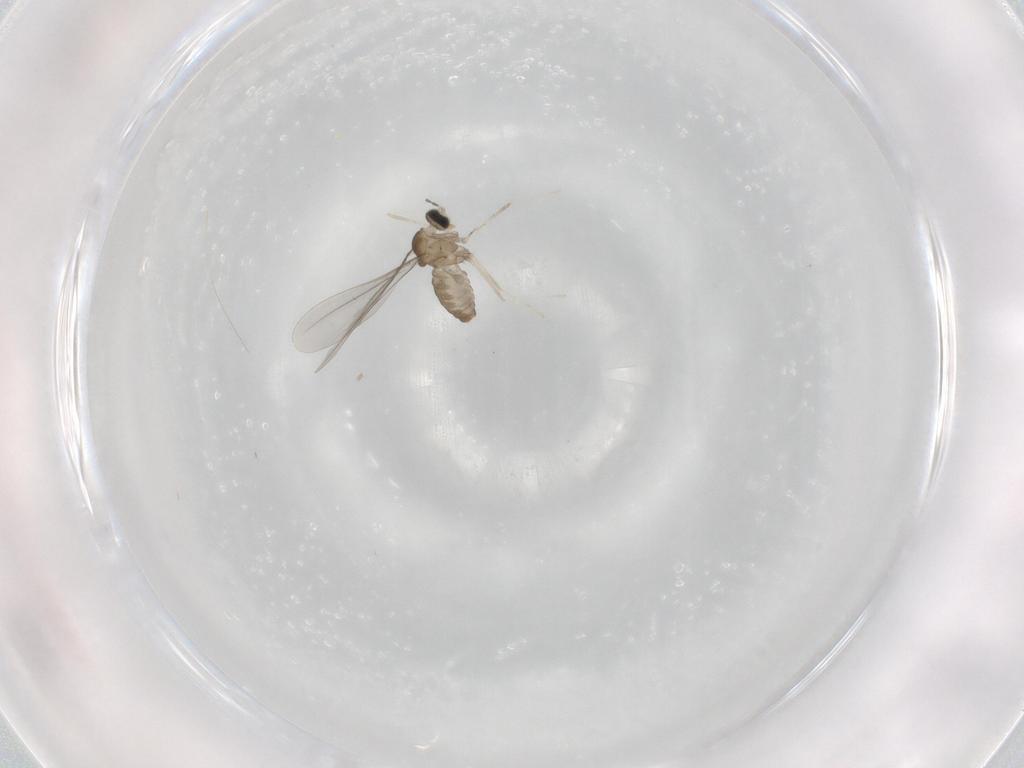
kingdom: Animalia
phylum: Arthropoda
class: Insecta
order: Diptera
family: Cecidomyiidae
